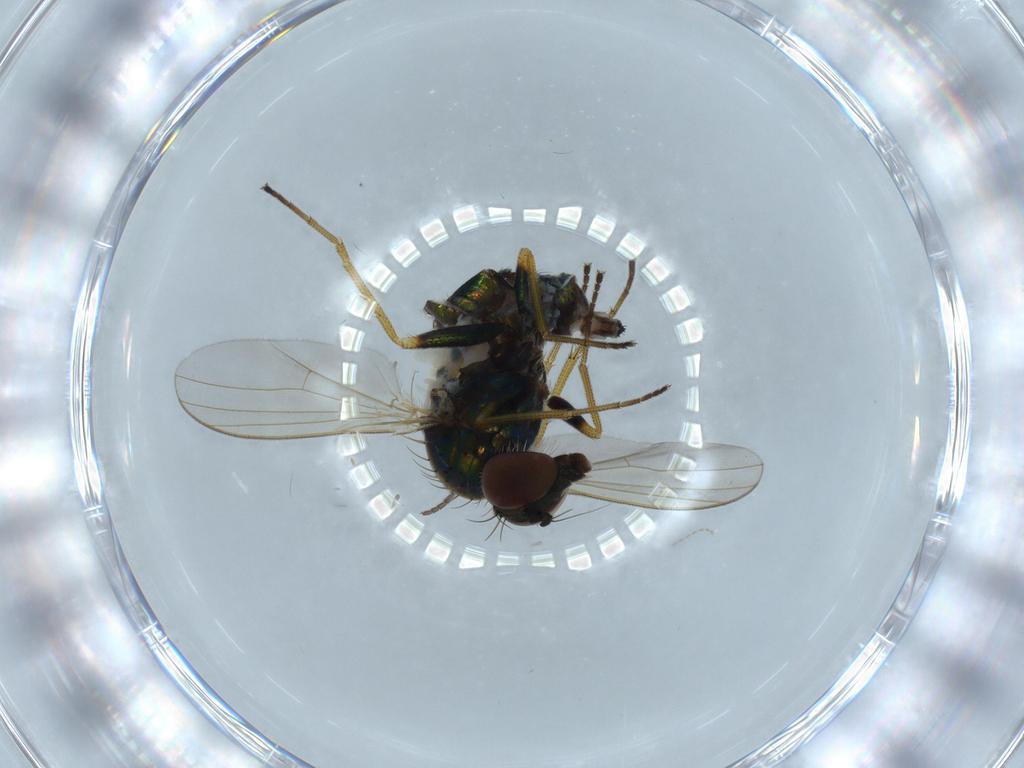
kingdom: Animalia
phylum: Arthropoda
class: Insecta
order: Diptera
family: Dolichopodidae
